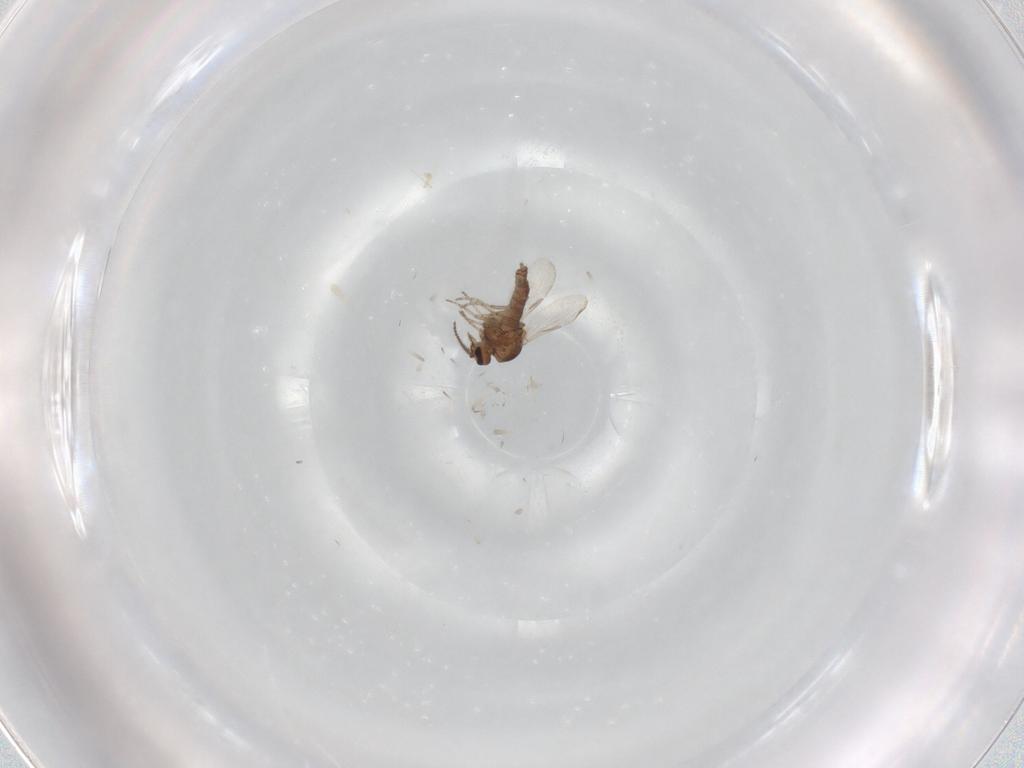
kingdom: Animalia
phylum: Arthropoda
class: Insecta
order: Diptera
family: Ceratopogonidae
